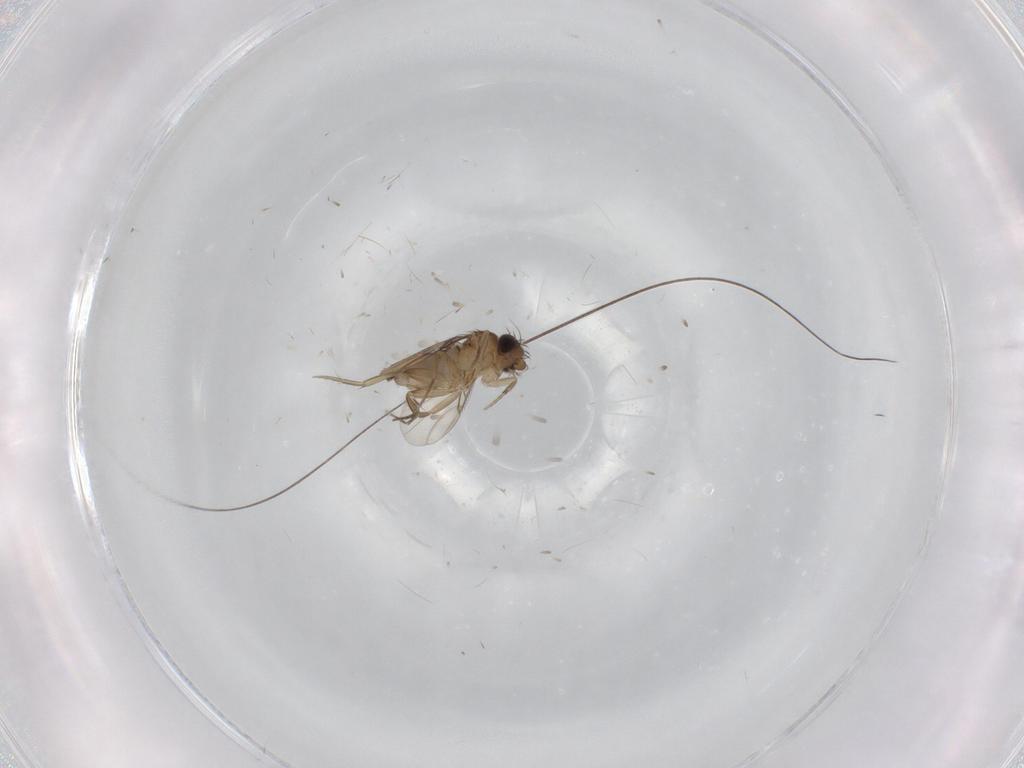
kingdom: Animalia
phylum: Arthropoda
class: Insecta
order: Diptera
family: Phoridae
